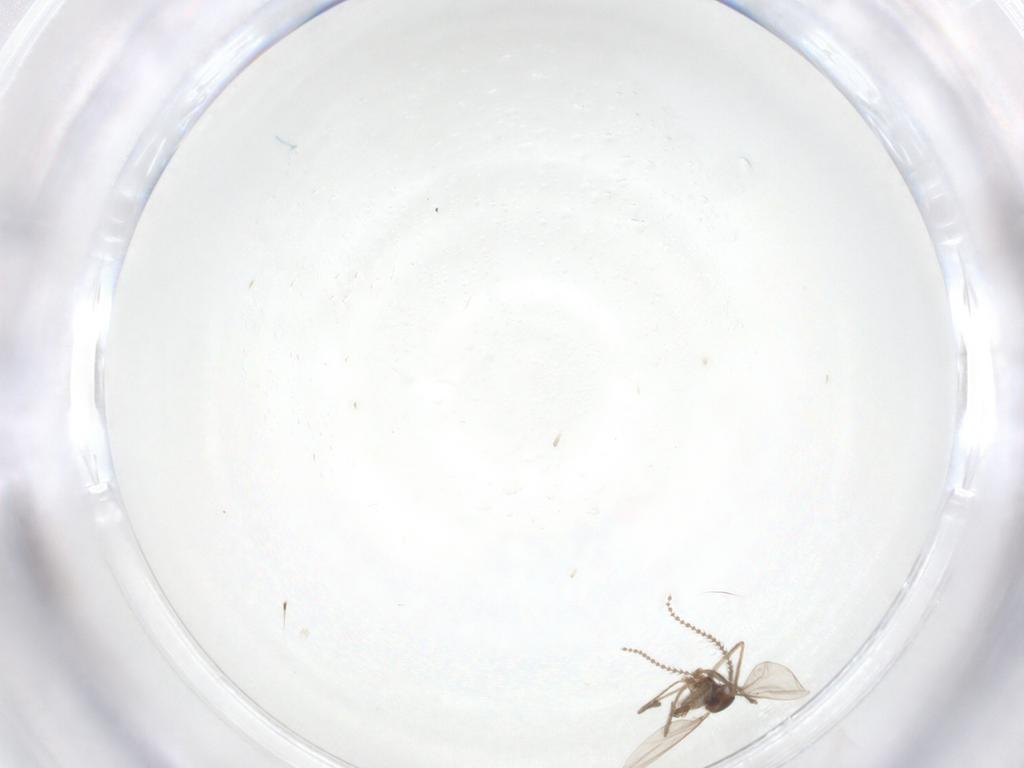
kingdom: Animalia
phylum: Arthropoda
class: Insecta
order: Diptera
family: Cecidomyiidae
